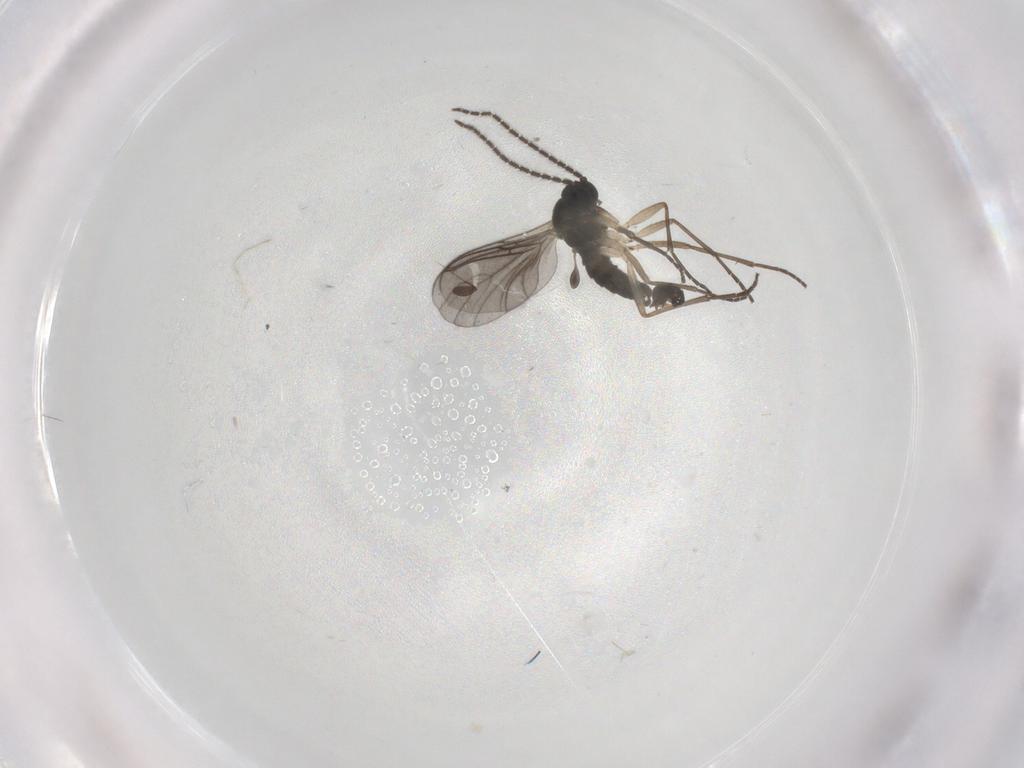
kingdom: Animalia
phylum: Arthropoda
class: Insecta
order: Diptera
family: Sciaridae
